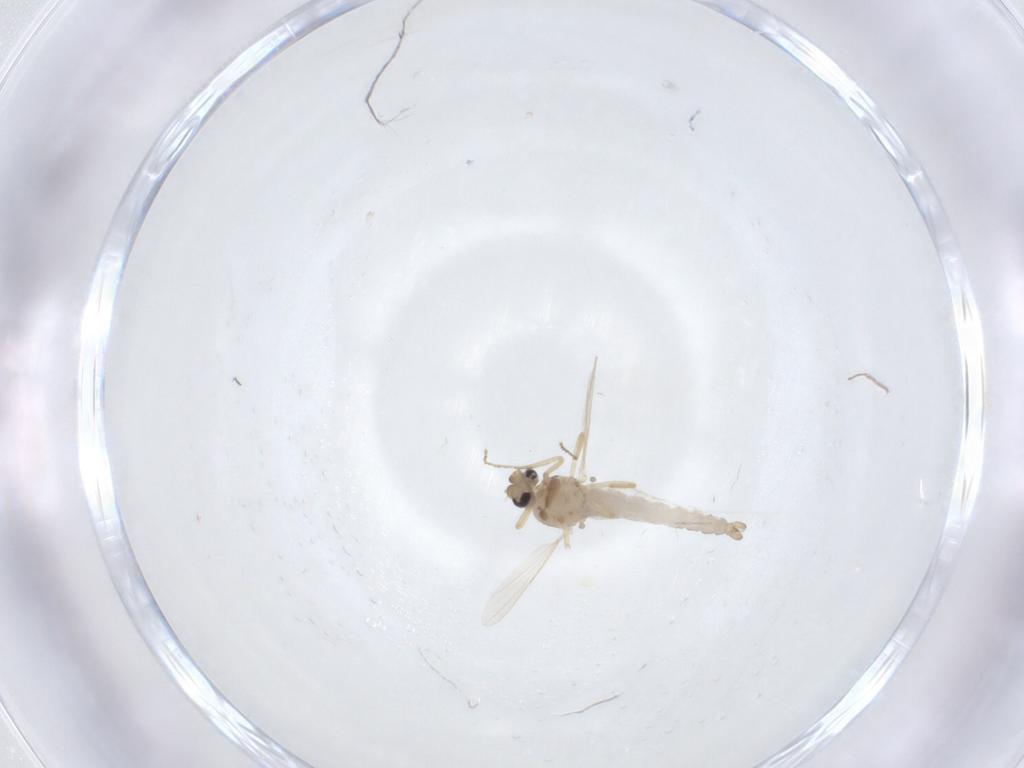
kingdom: Animalia
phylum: Arthropoda
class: Insecta
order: Diptera
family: Ceratopogonidae
